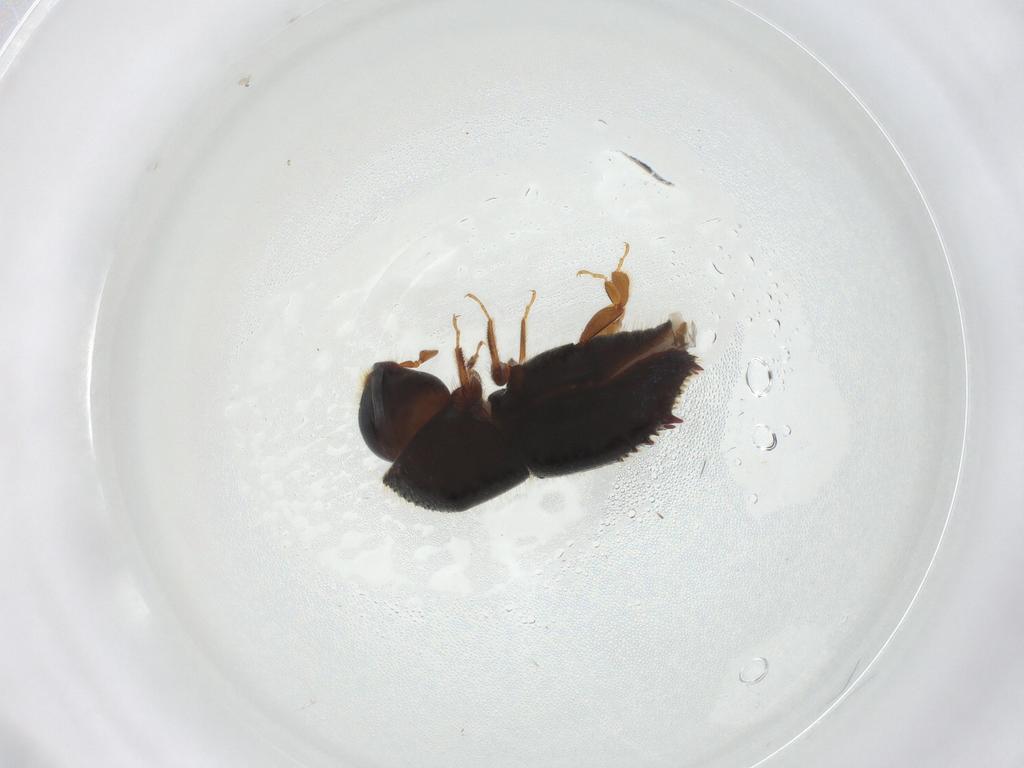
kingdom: Animalia
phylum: Arthropoda
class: Insecta
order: Coleoptera
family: Curculionidae
